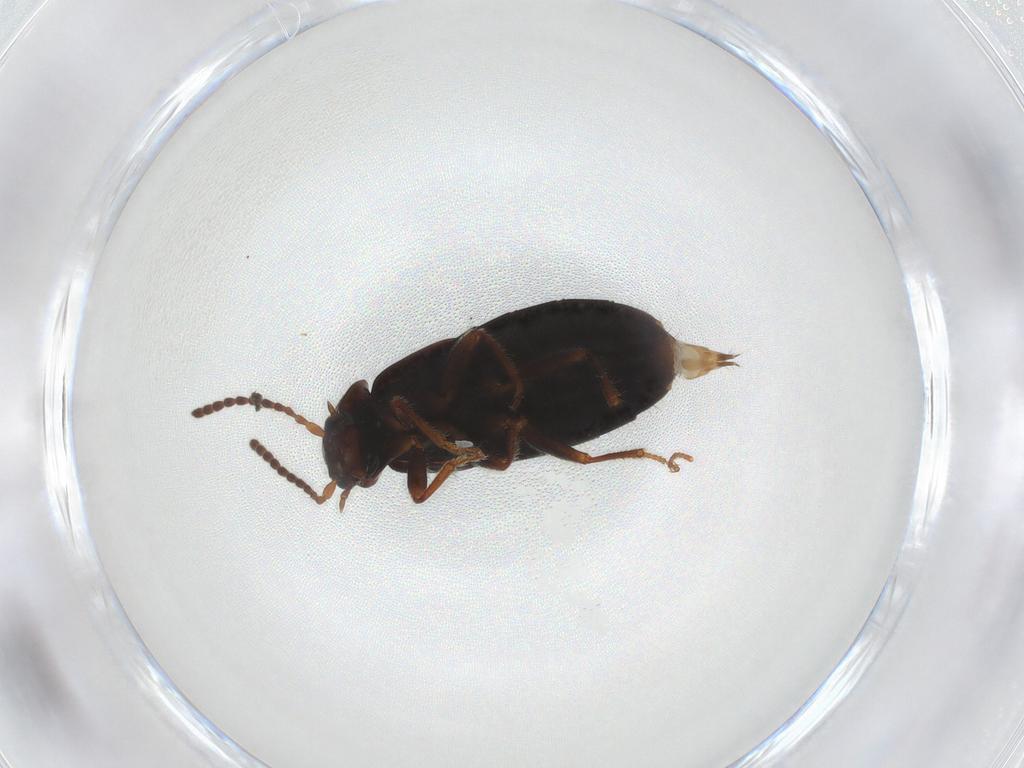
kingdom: Animalia
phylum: Arthropoda
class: Insecta
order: Coleoptera
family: Staphylinidae
